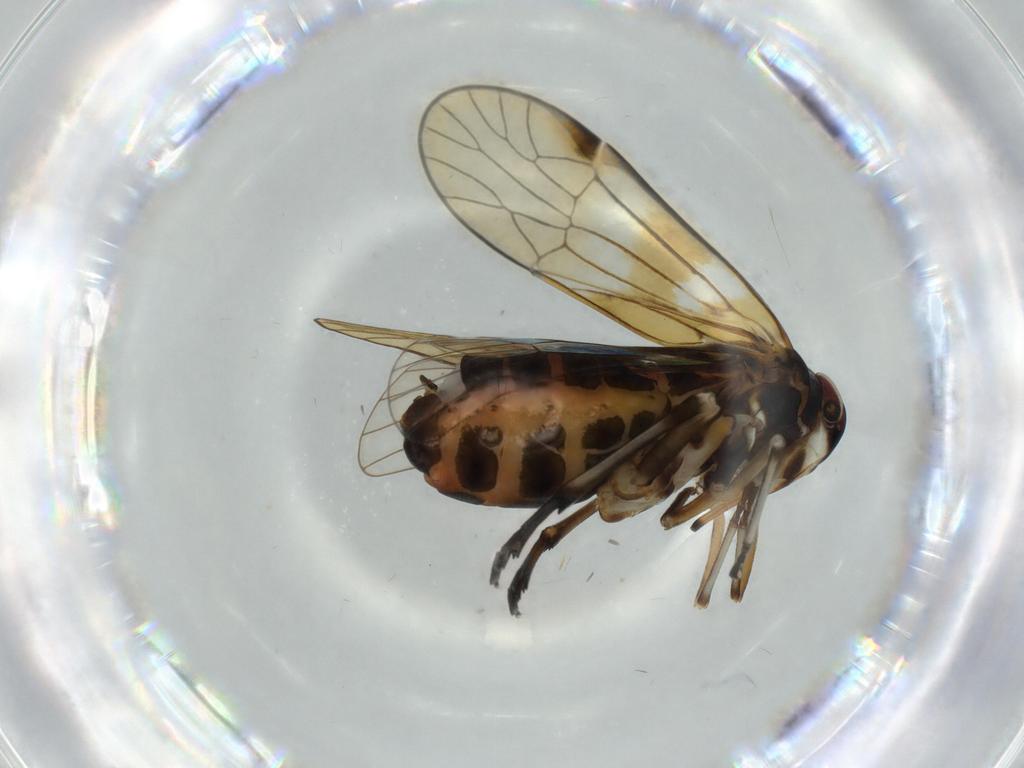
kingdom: Animalia
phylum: Arthropoda
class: Insecta
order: Hemiptera
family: Kinnaridae
